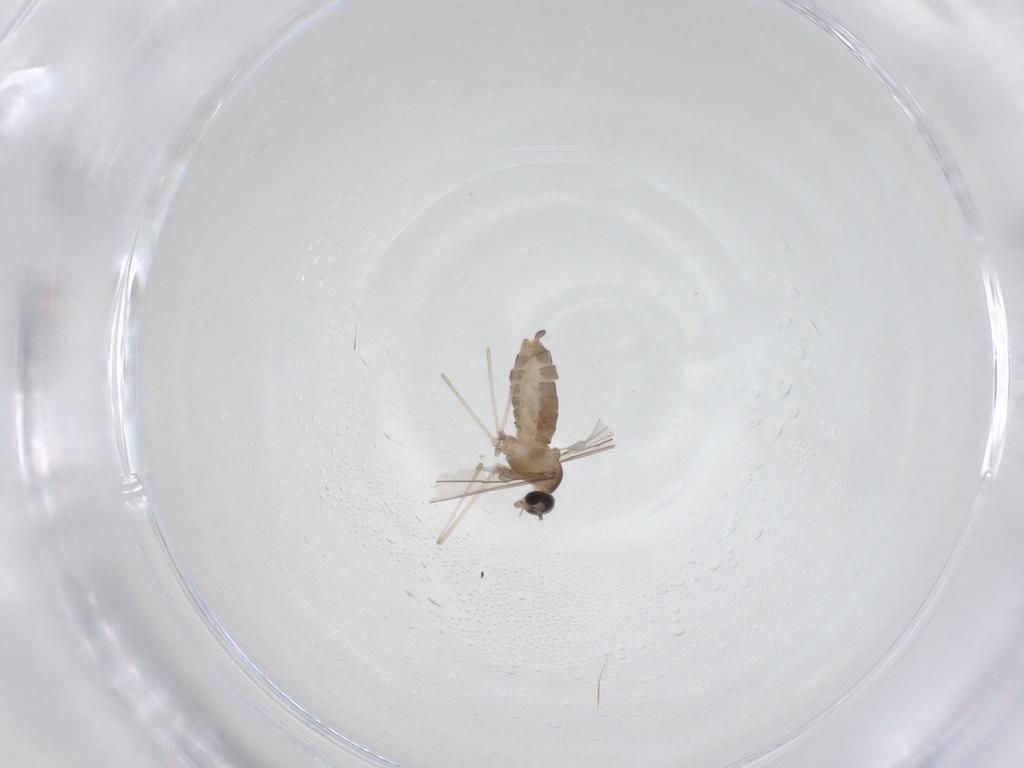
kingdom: Animalia
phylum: Arthropoda
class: Insecta
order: Diptera
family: Cecidomyiidae
